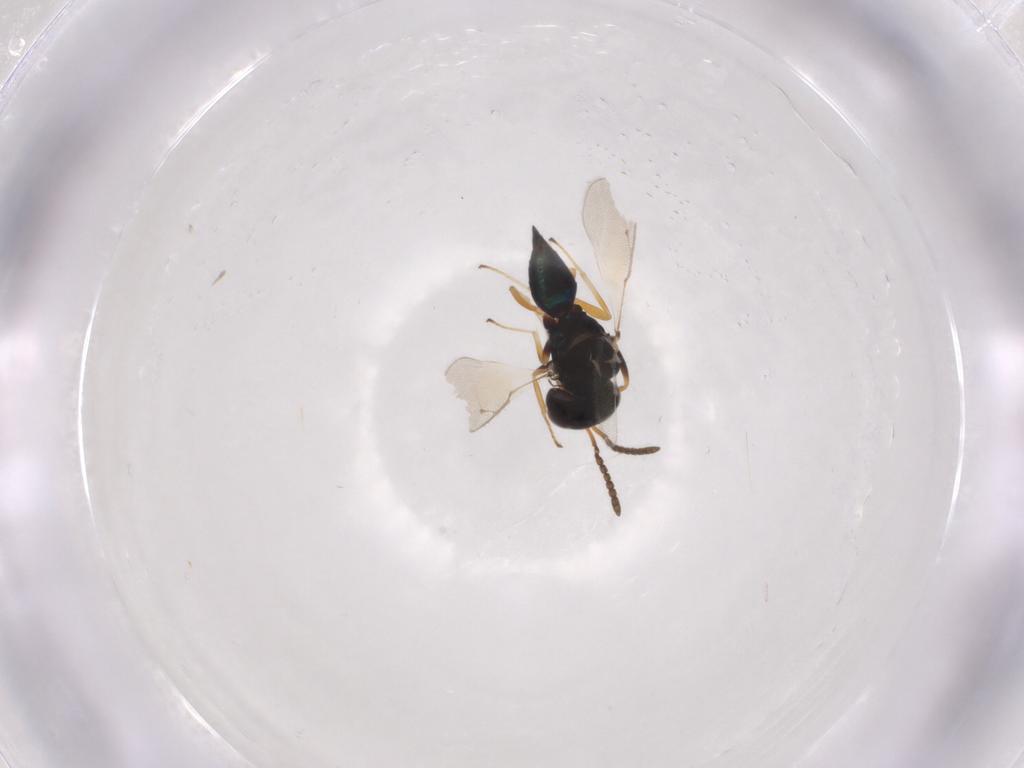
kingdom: Animalia
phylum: Arthropoda
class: Insecta
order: Hymenoptera
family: Pteromalidae
